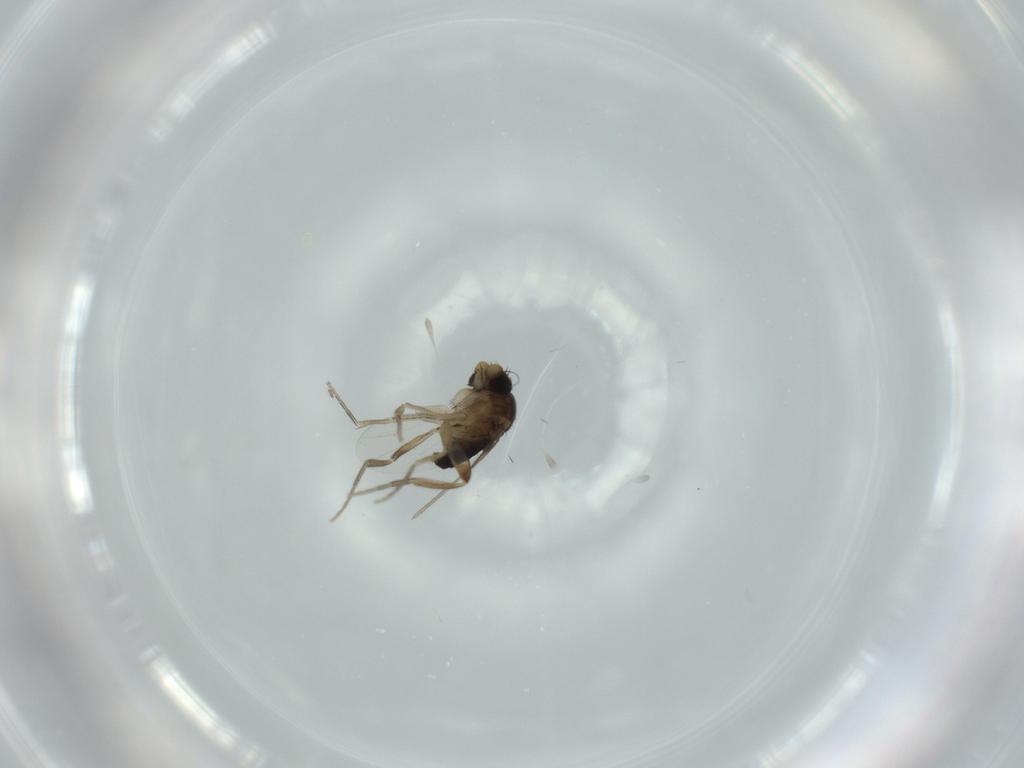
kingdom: Animalia
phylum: Arthropoda
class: Insecta
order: Diptera
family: Phoridae
